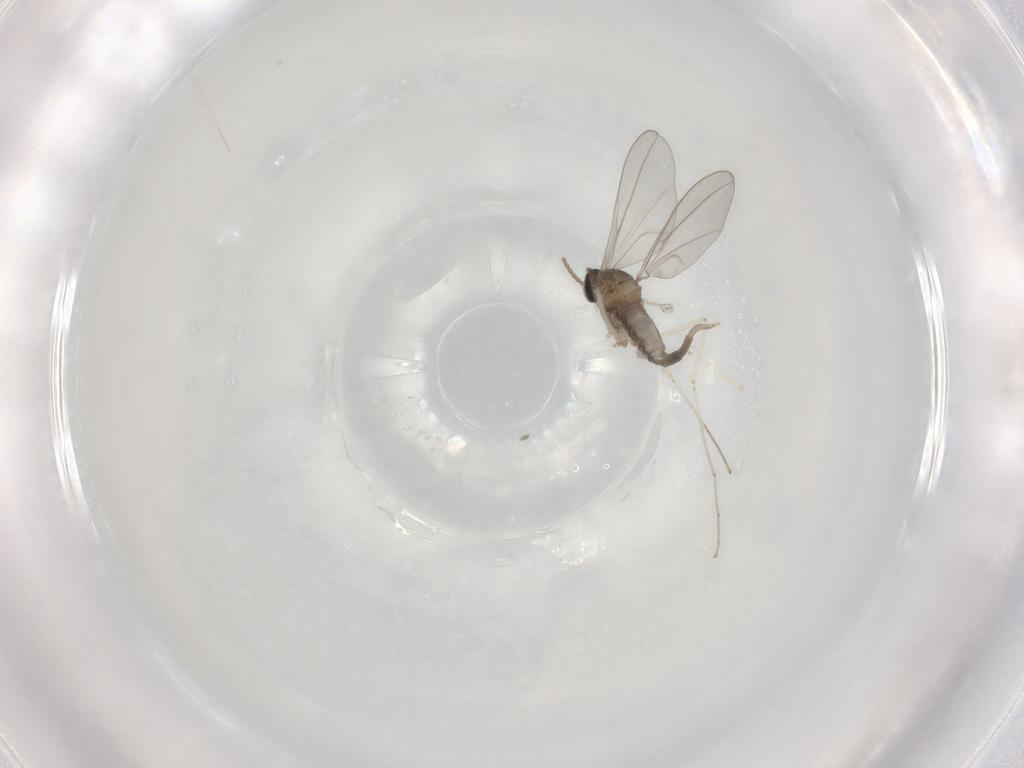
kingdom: Animalia
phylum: Arthropoda
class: Insecta
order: Diptera
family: Cecidomyiidae
